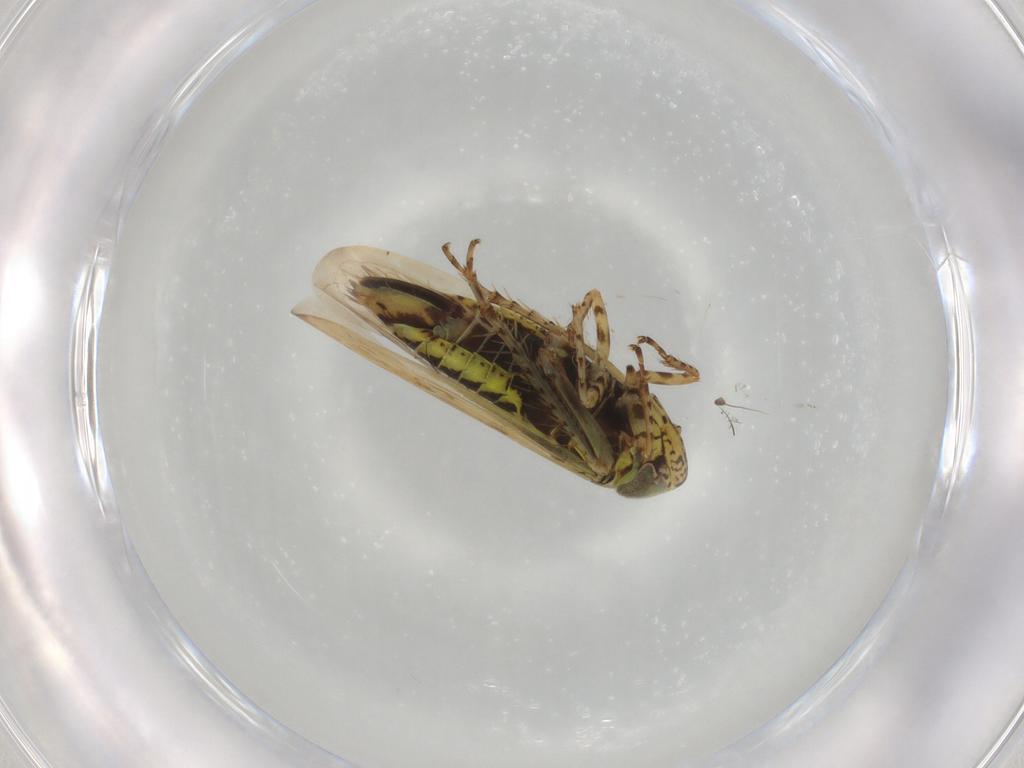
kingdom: Animalia
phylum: Arthropoda
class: Insecta
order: Hemiptera
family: Cicadellidae
